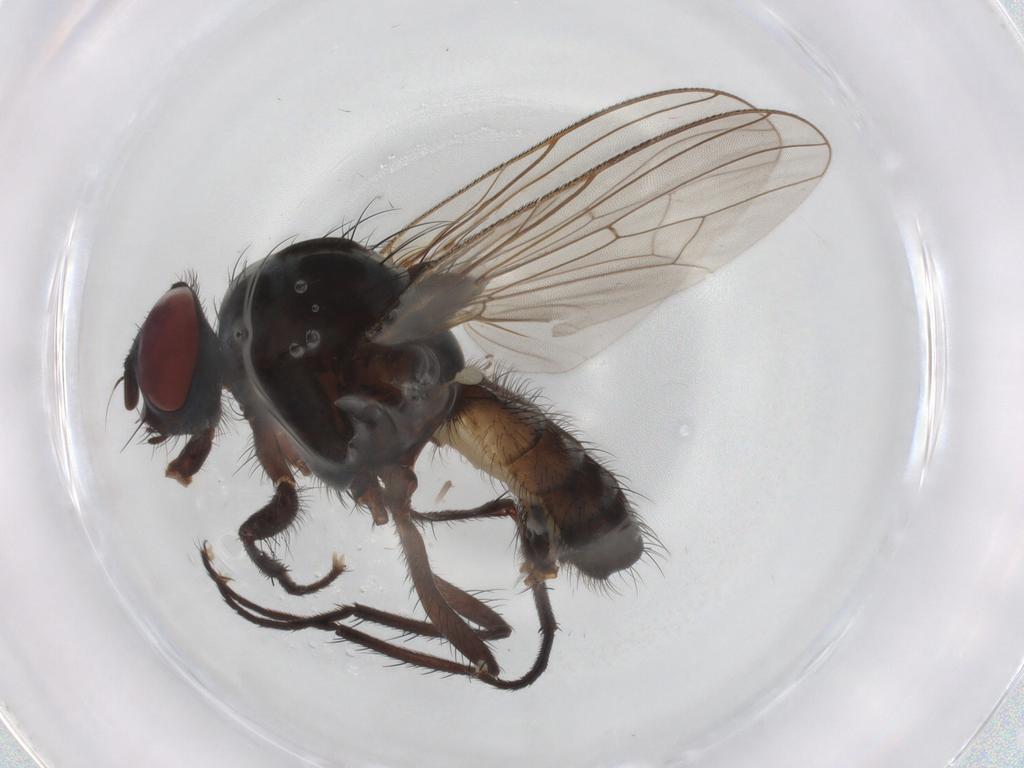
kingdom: Animalia
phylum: Arthropoda
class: Insecta
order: Diptera
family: Anthomyiidae
